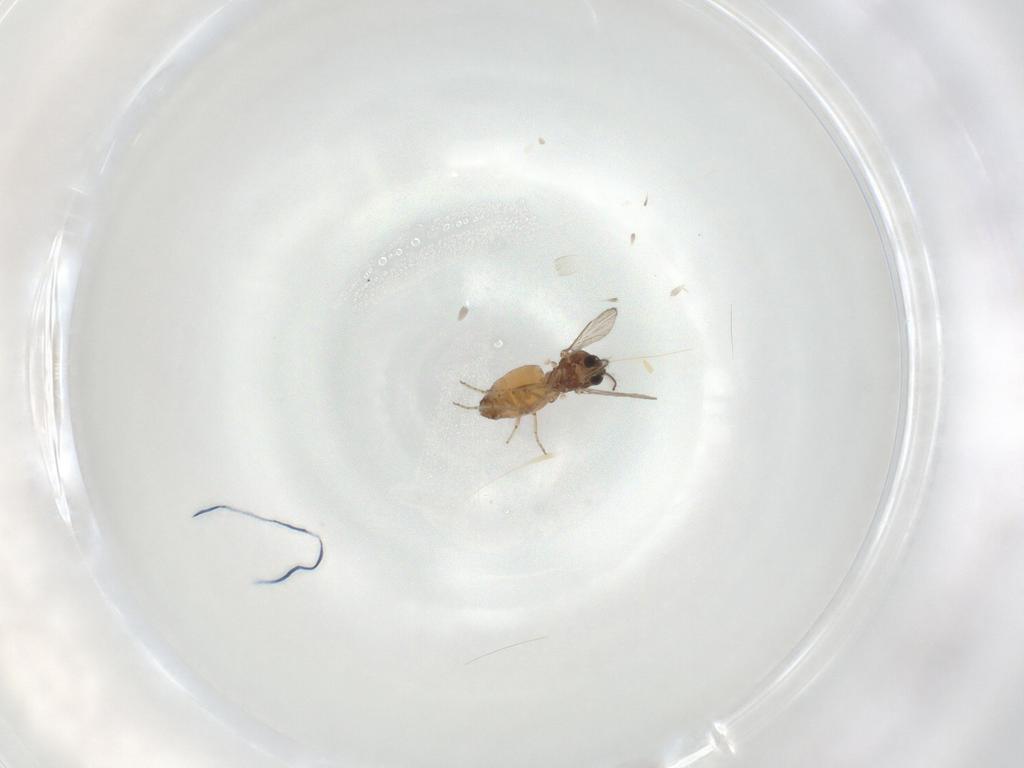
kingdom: Animalia
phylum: Arthropoda
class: Insecta
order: Diptera
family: Ceratopogonidae
